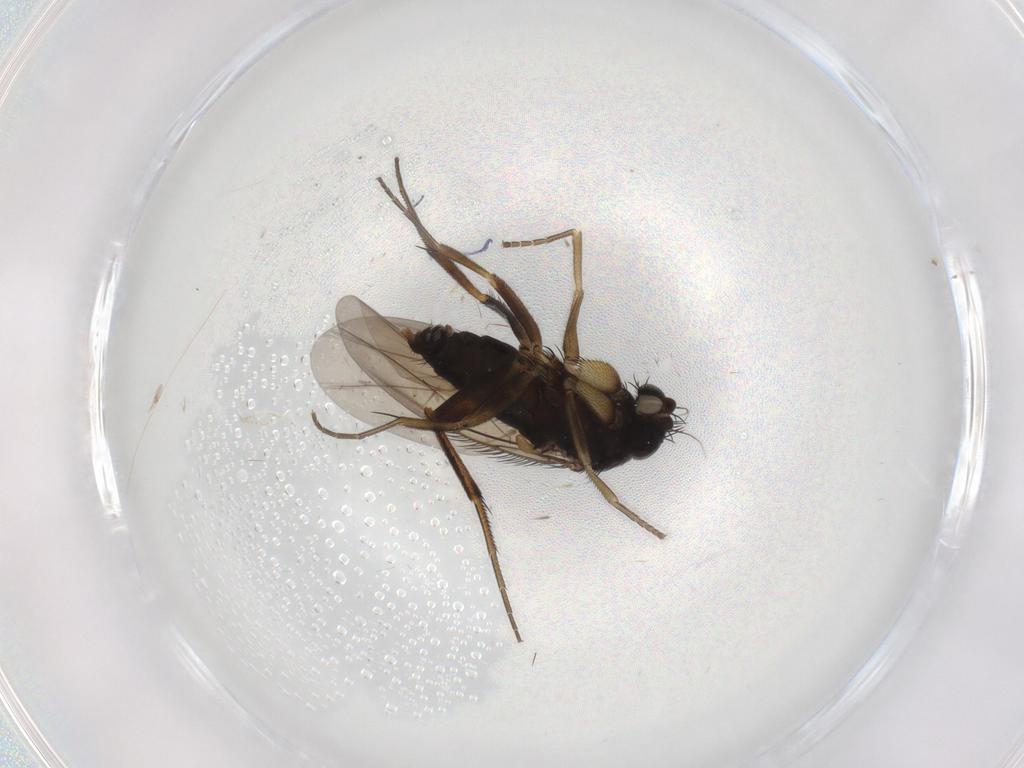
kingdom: Animalia
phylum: Arthropoda
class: Insecta
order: Diptera
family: Phoridae
